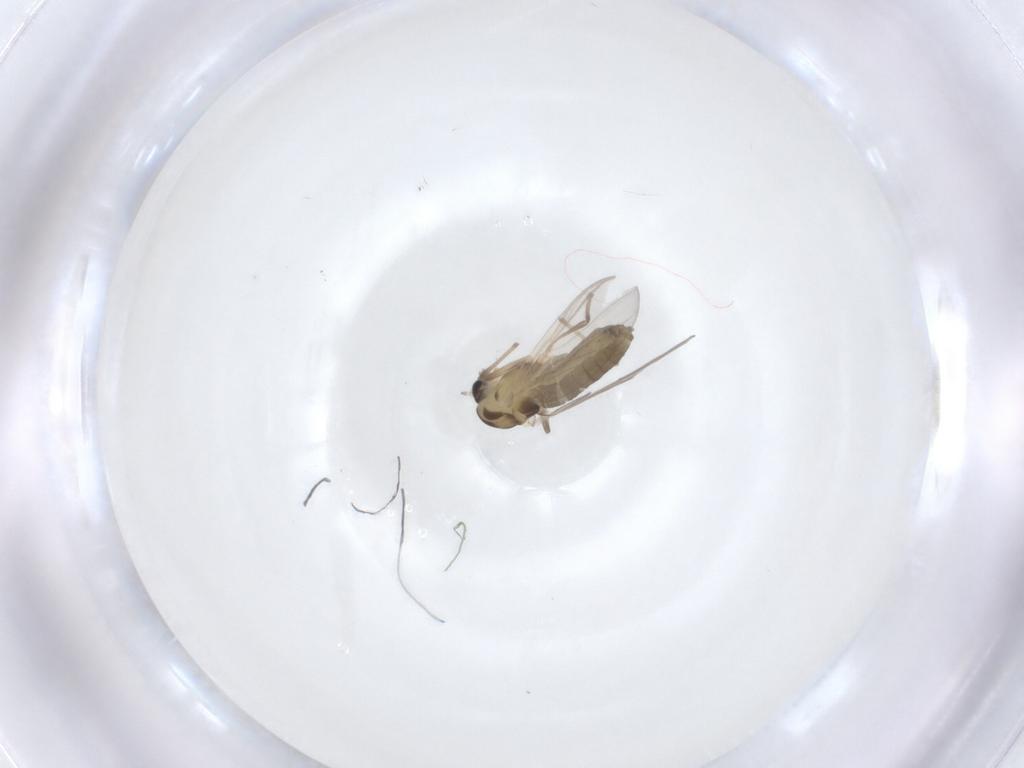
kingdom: Animalia
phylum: Arthropoda
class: Insecta
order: Diptera
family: Chironomidae
